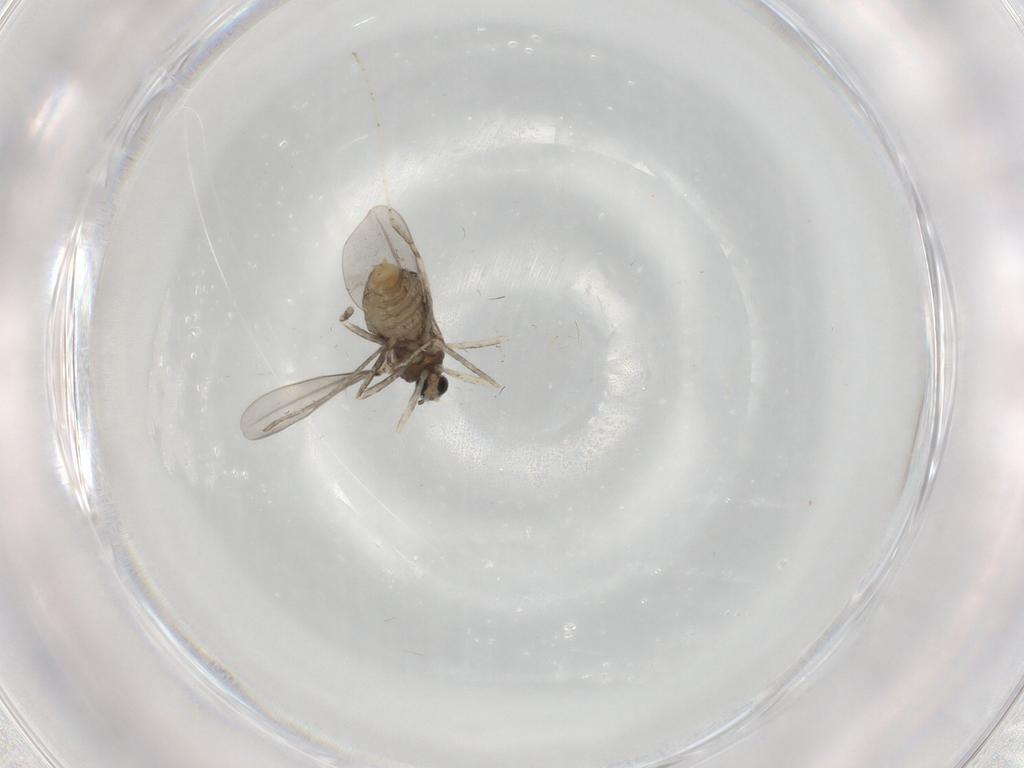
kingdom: Animalia
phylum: Arthropoda
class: Insecta
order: Diptera
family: Cecidomyiidae
